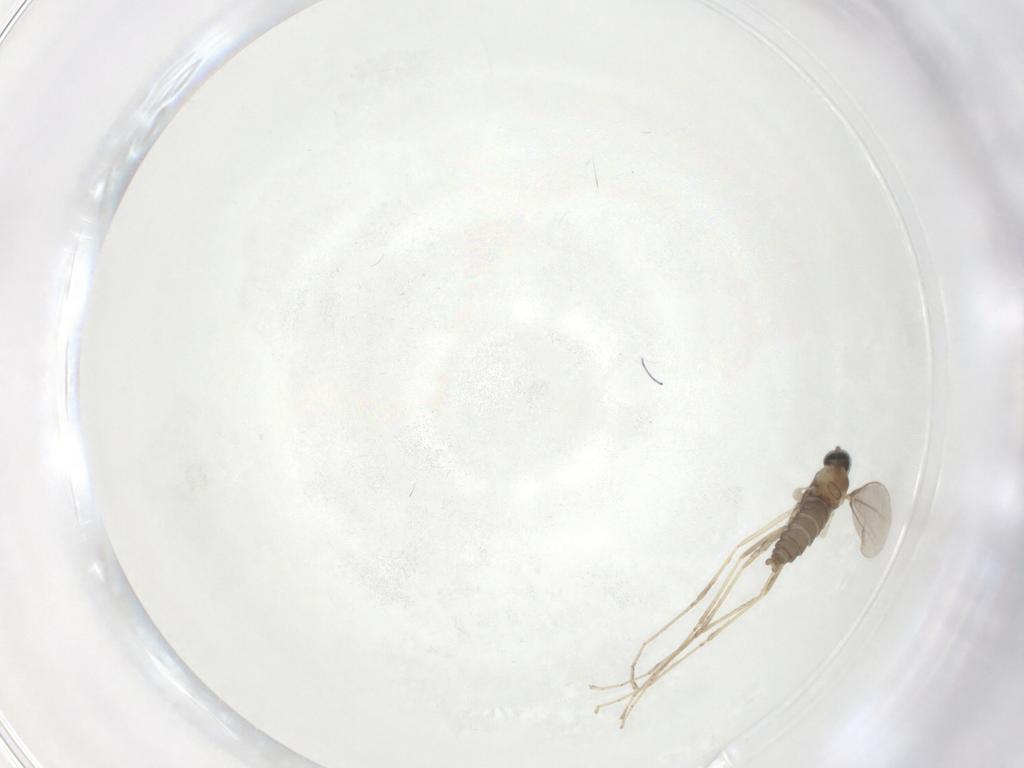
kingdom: Animalia
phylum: Arthropoda
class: Insecta
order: Diptera
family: Cecidomyiidae
